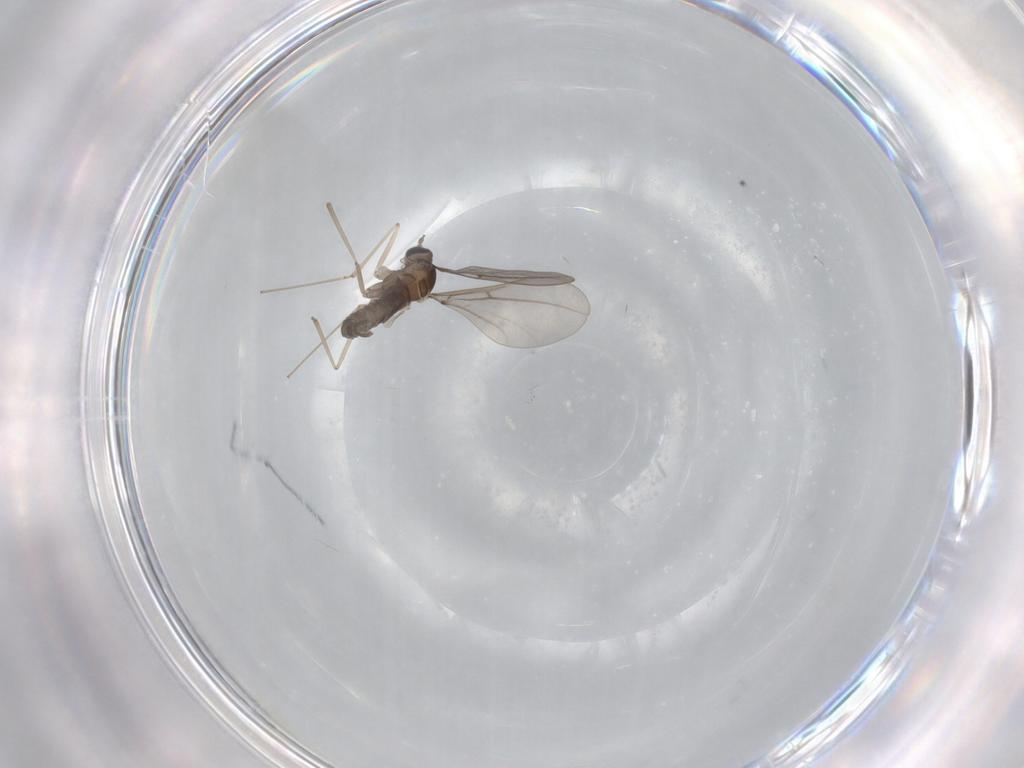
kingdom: Animalia
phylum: Arthropoda
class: Insecta
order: Diptera
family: Cecidomyiidae
